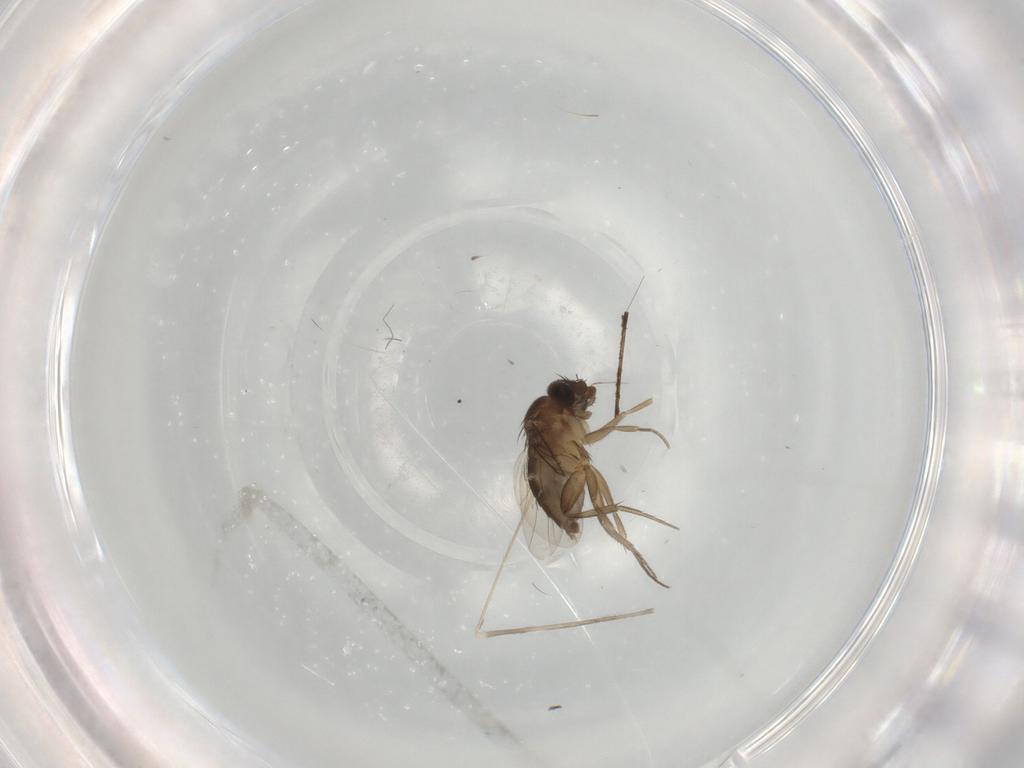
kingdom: Animalia
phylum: Arthropoda
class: Insecta
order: Diptera
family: Phoridae
